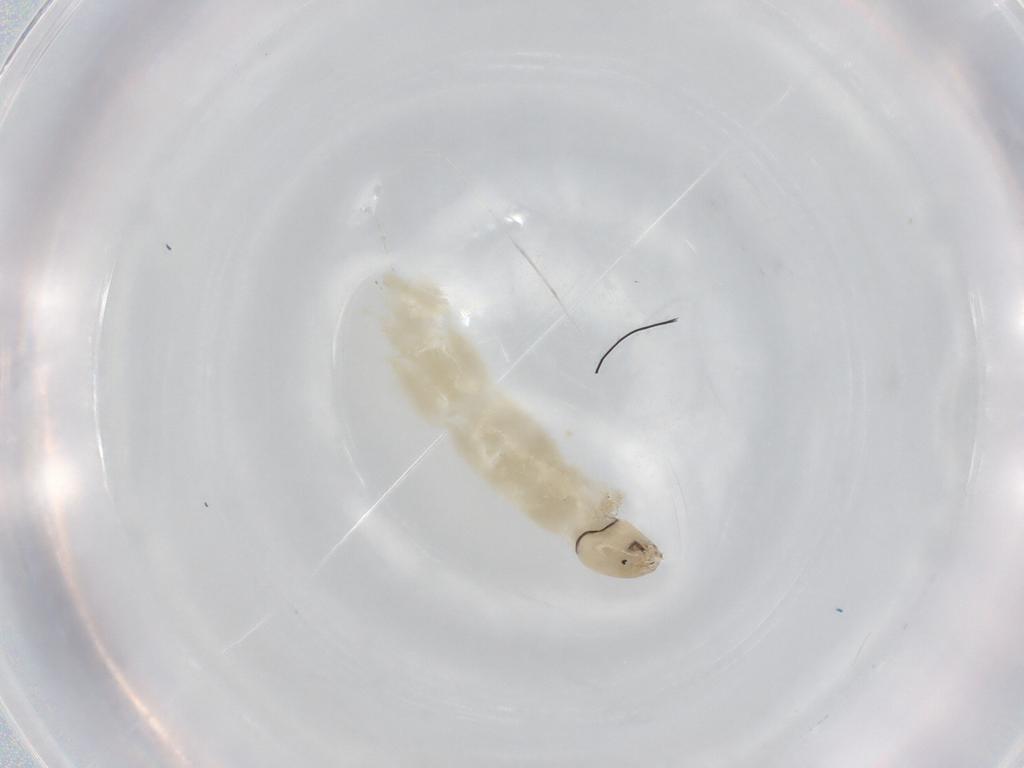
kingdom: Animalia
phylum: Arthropoda
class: Insecta
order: Diptera
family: Chironomidae
